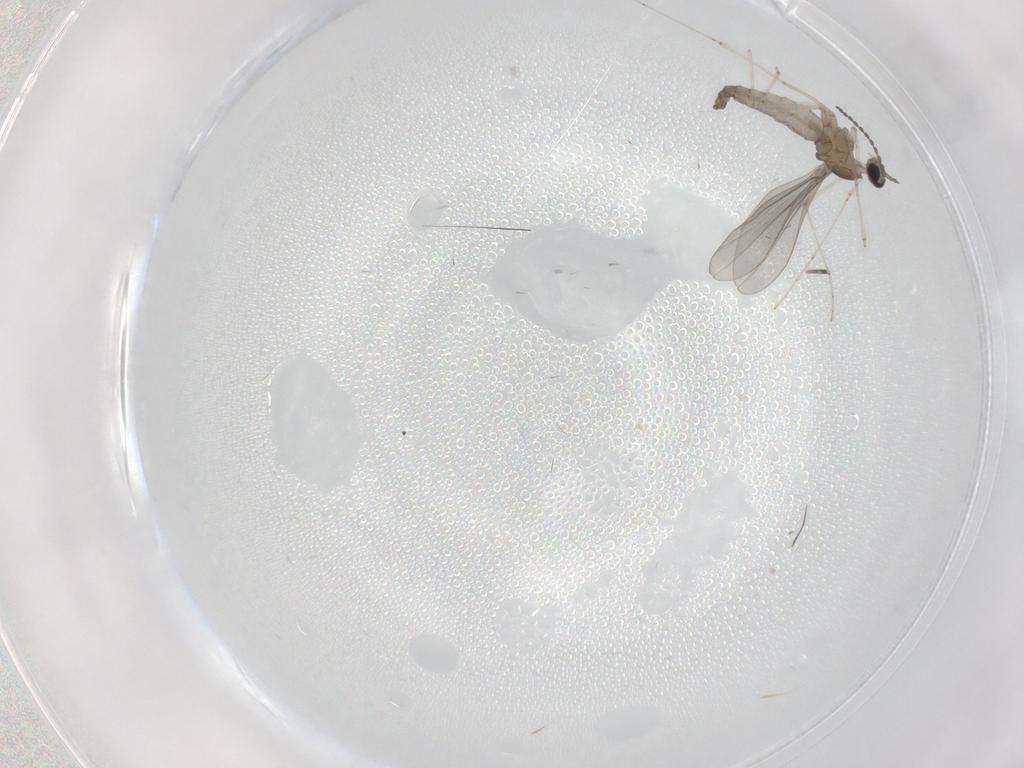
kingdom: Animalia
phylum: Arthropoda
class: Insecta
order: Diptera
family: Cecidomyiidae
